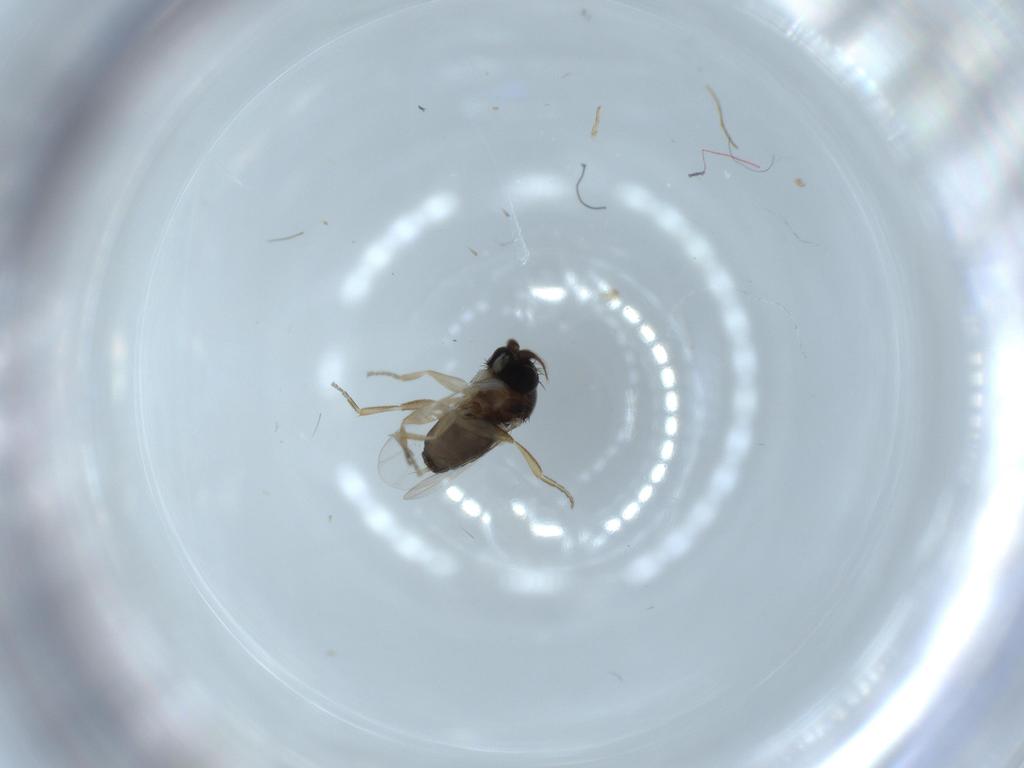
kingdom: Animalia
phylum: Arthropoda
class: Insecta
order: Diptera
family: Phoridae
